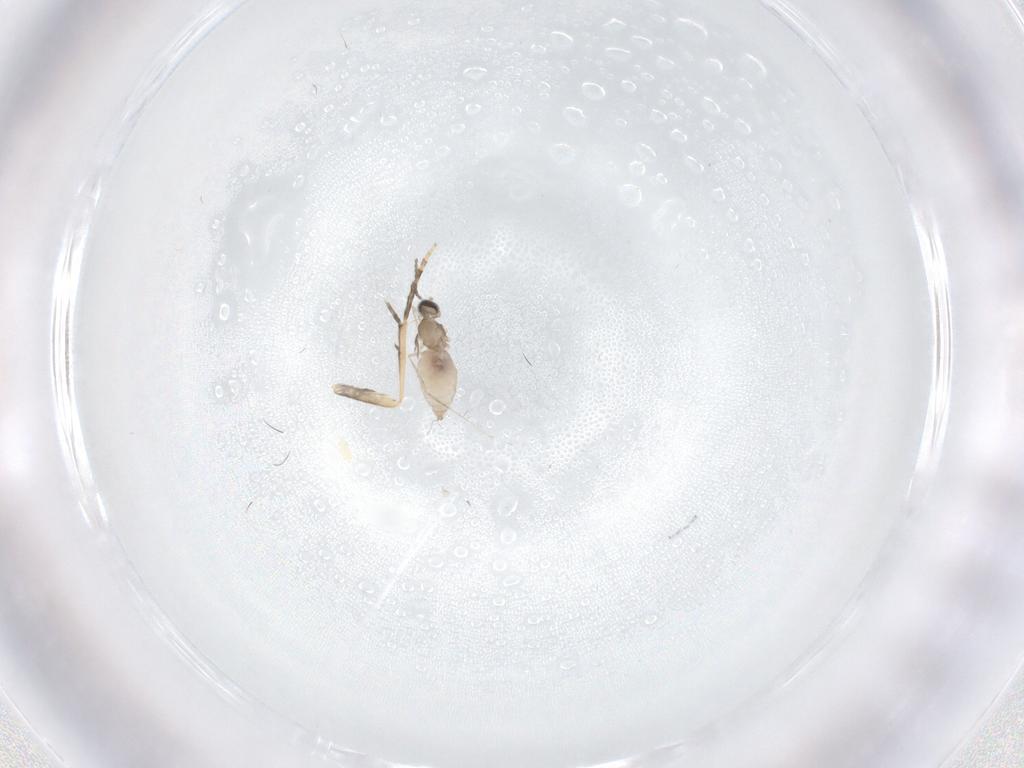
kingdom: Animalia
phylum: Arthropoda
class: Insecta
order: Diptera
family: Cecidomyiidae
